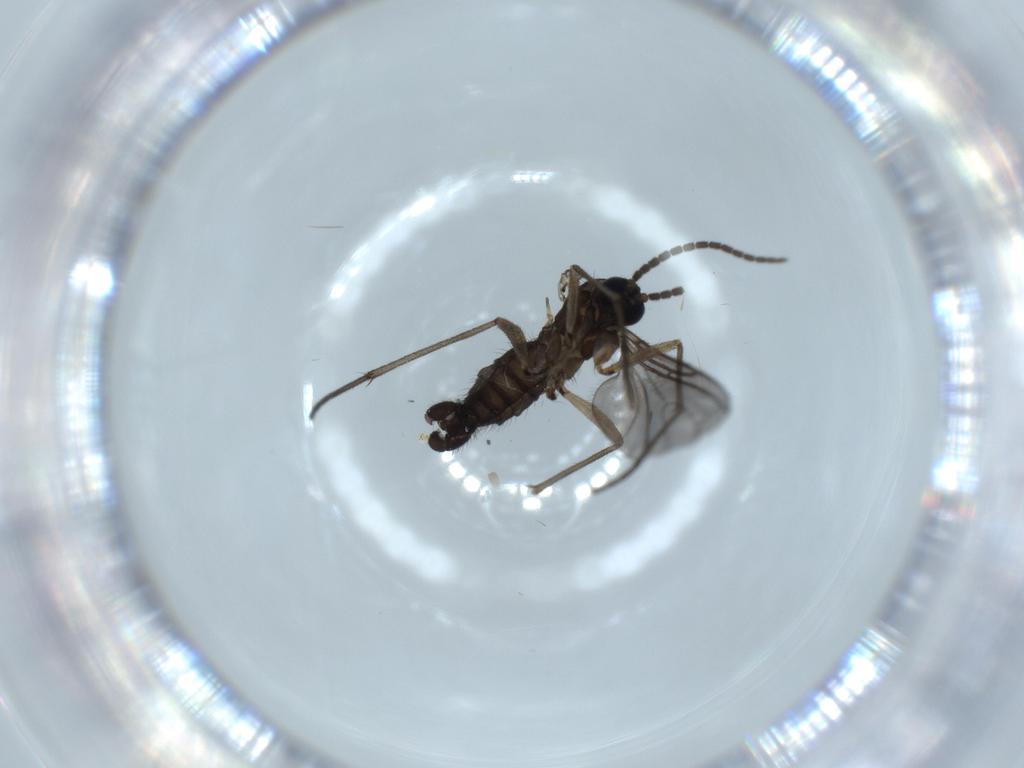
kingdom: Animalia
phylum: Arthropoda
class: Insecta
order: Diptera
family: Sciaridae
